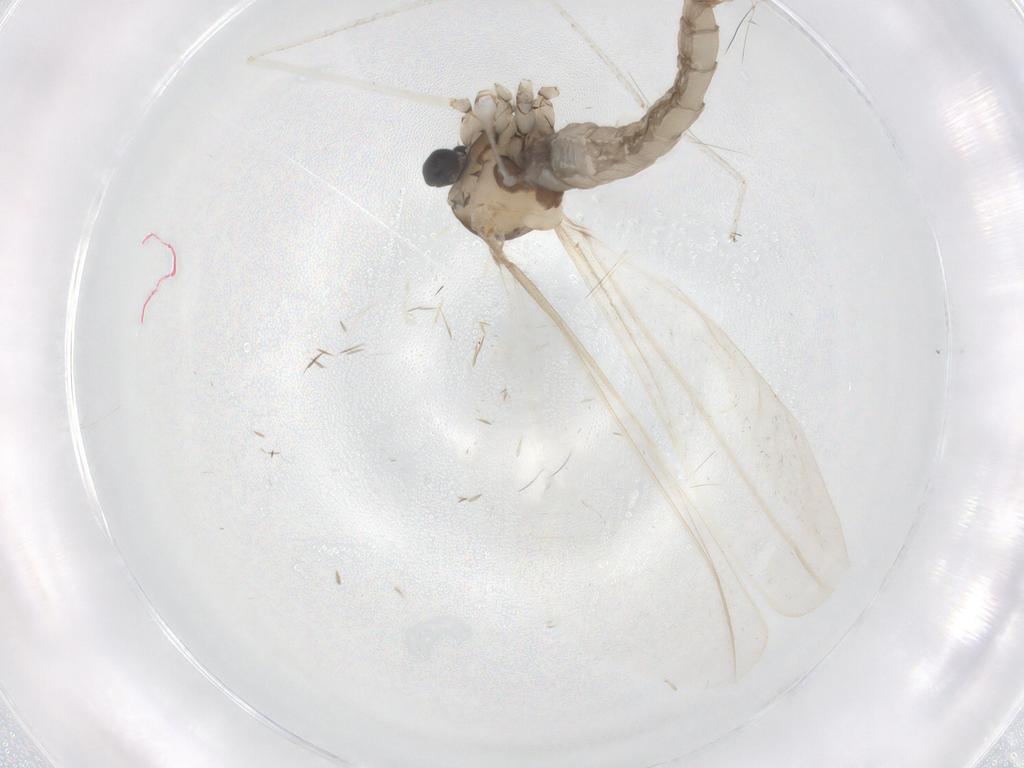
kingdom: Animalia
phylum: Arthropoda
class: Insecta
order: Diptera
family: Cecidomyiidae
